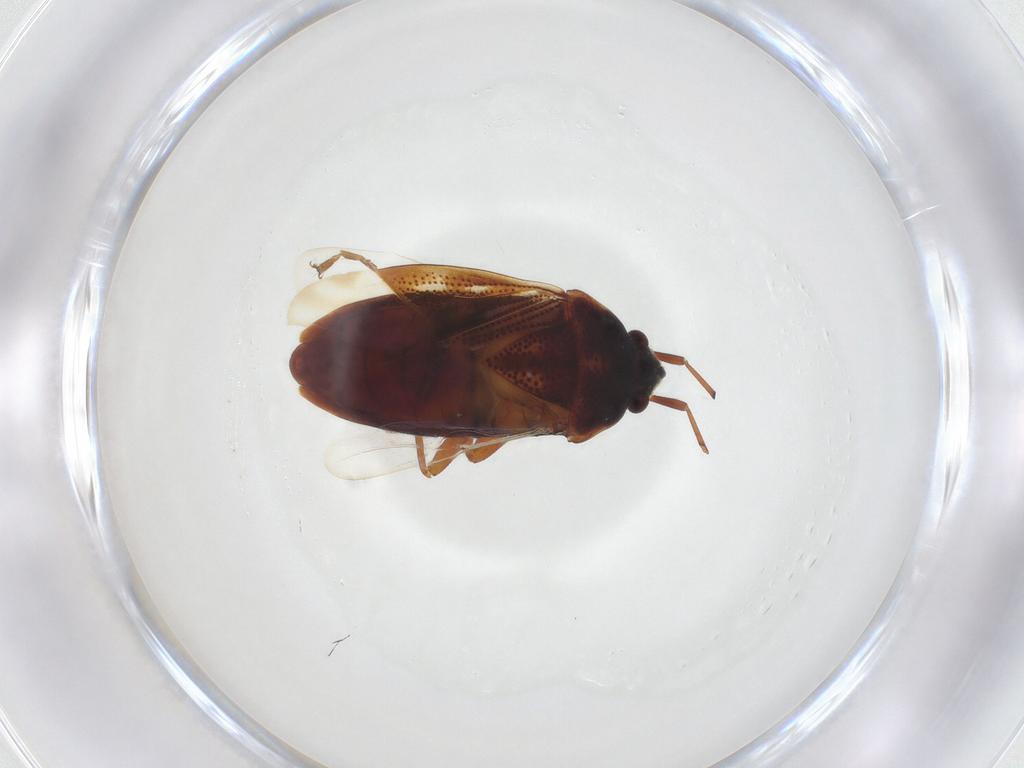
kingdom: Animalia
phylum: Arthropoda
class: Insecta
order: Hemiptera
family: Rhyparochromidae
